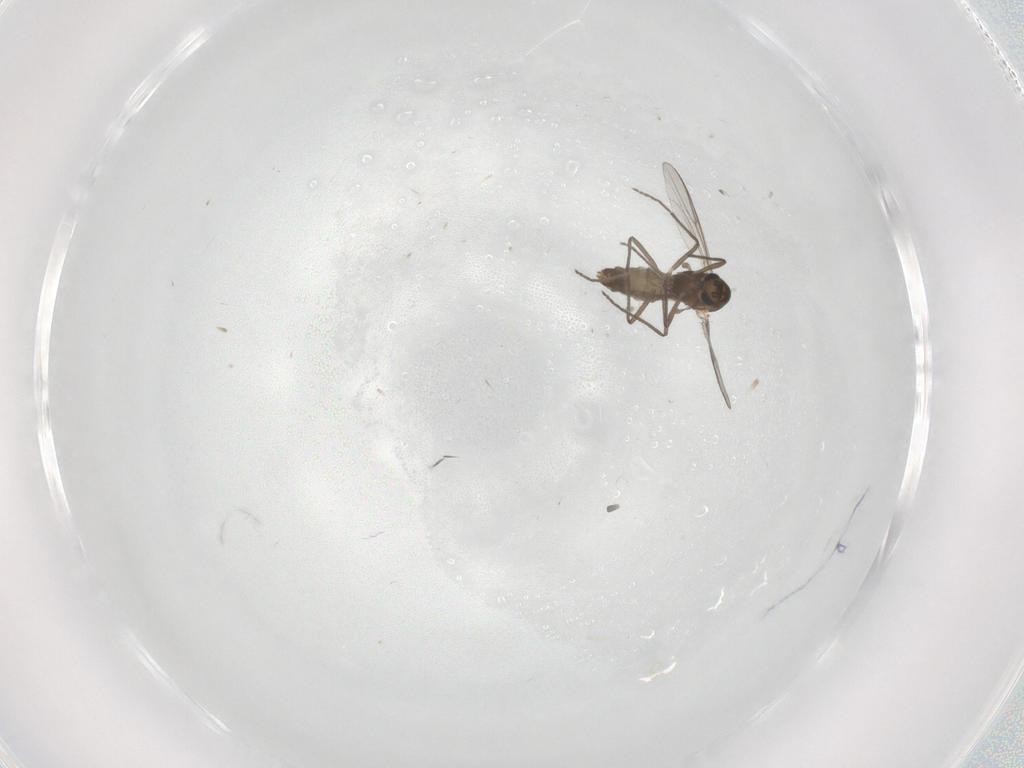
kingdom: Animalia
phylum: Arthropoda
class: Insecta
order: Diptera
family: Chironomidae
